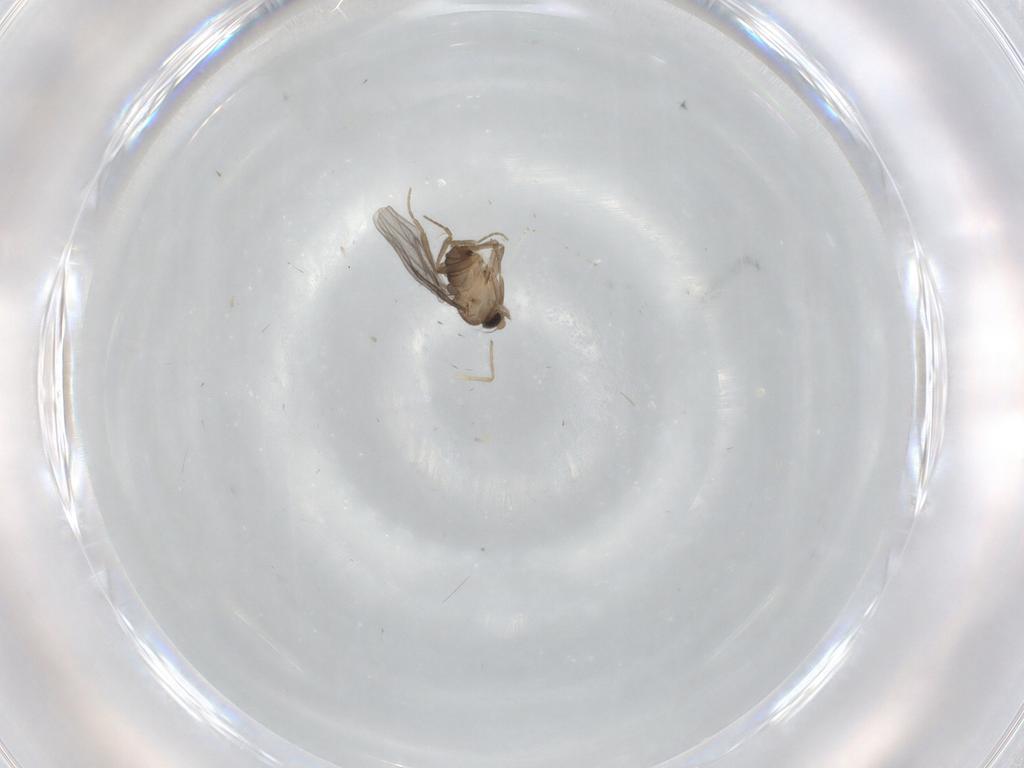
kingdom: Animalia
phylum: Arthropoda
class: Insecta
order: Diptera
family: Cecidomyiidae
